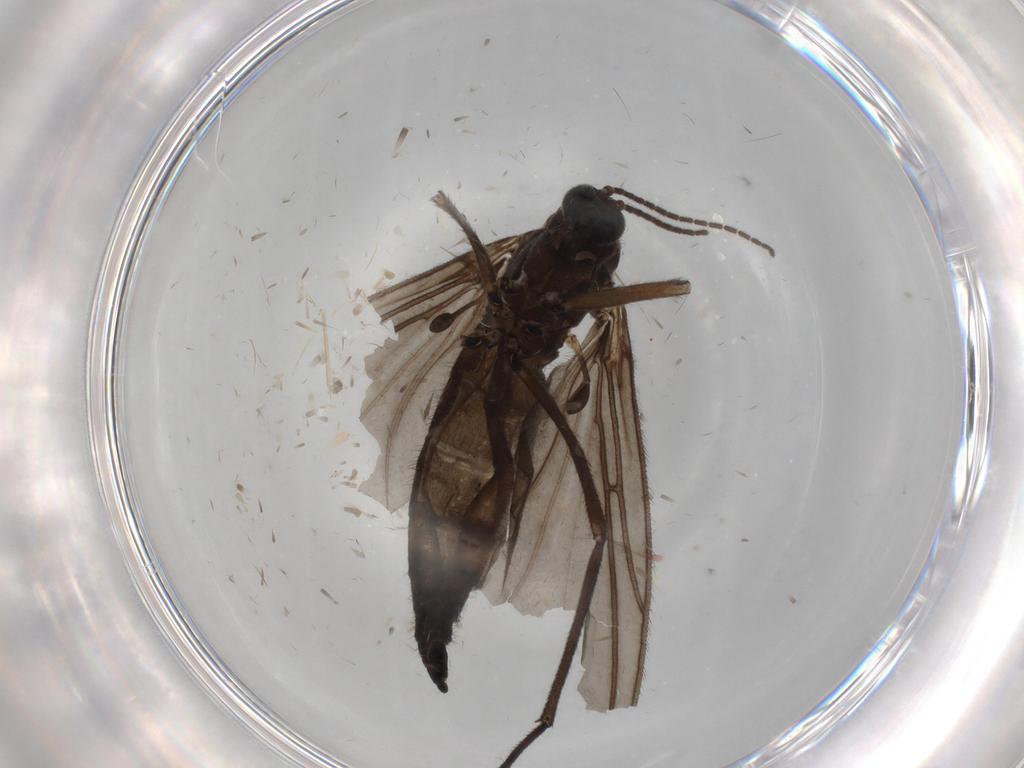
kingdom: Animalia
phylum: Arthropoda
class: Insecta
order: Diptera
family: Sciaridae
